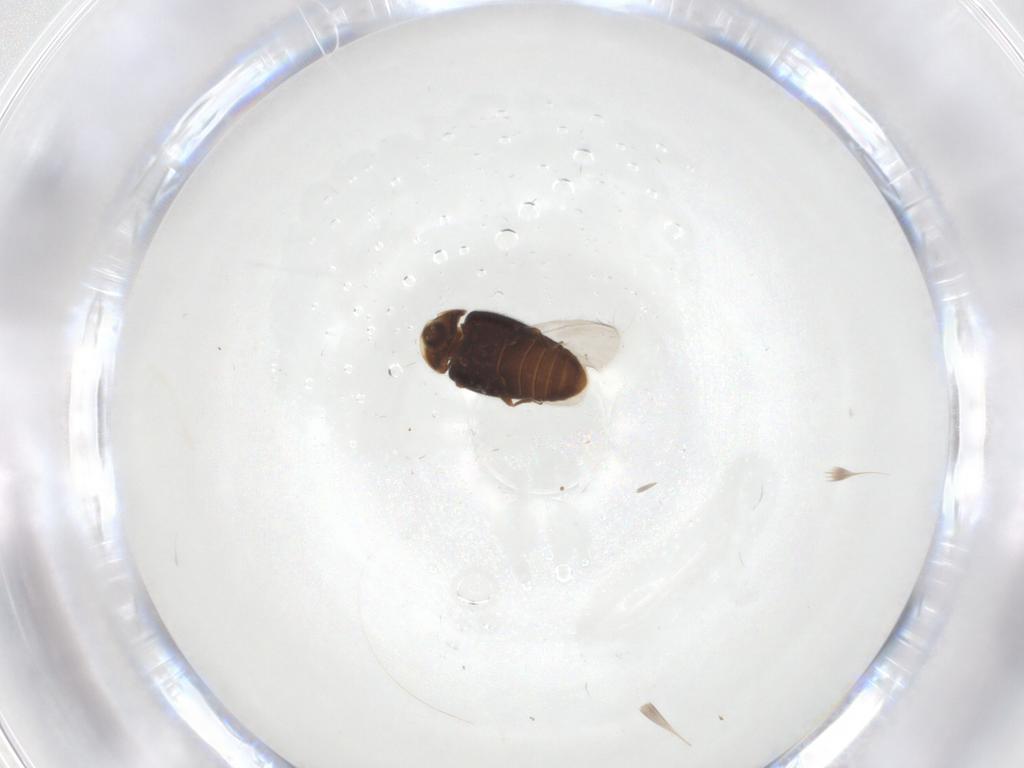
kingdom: Animalia
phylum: Arthropoda
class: Insecta
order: Coleoptera
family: Corylophidae
